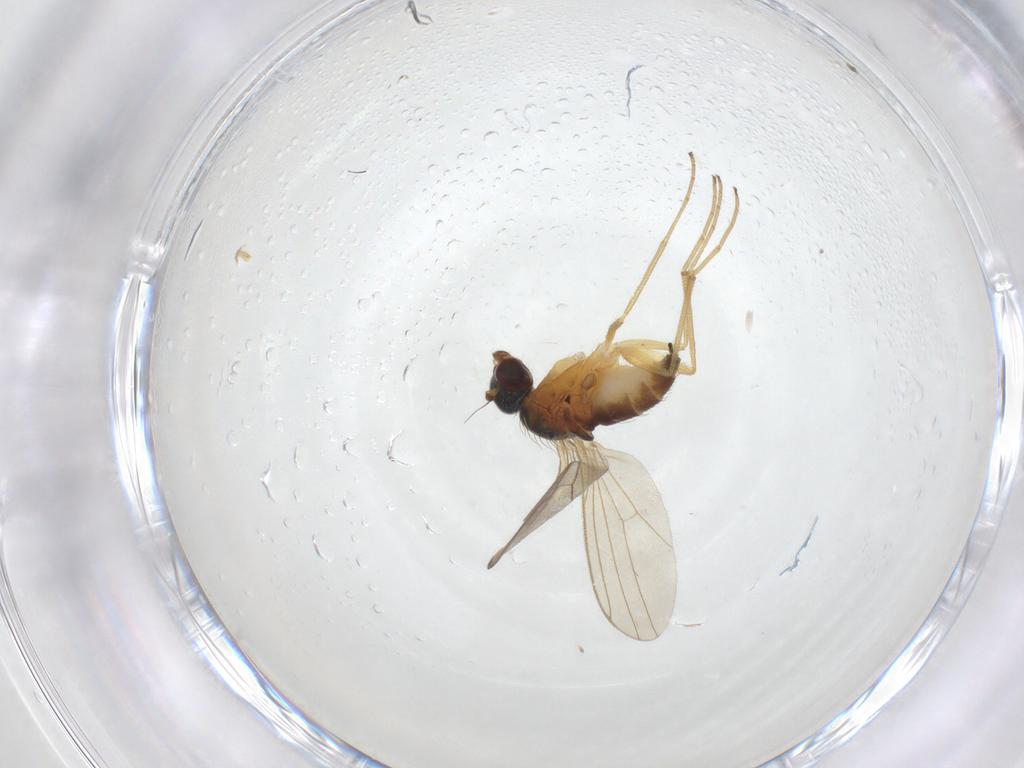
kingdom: Animalia
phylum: Arthropoda
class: Insecta
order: Diptera
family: Dolichopodidae
